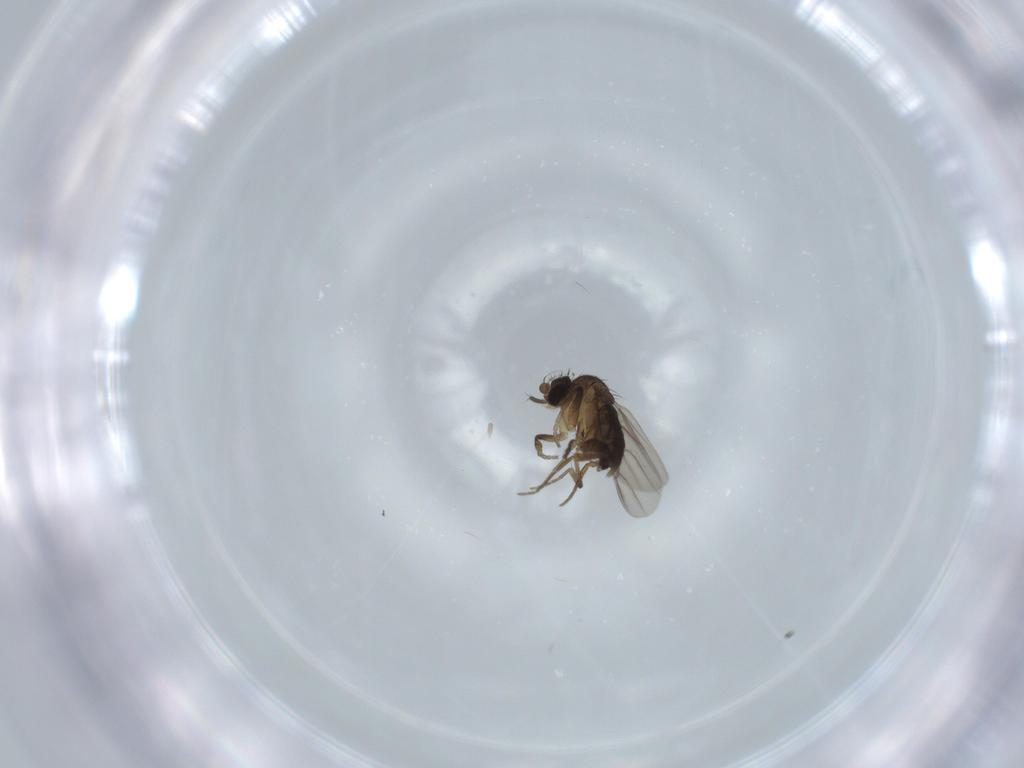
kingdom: Animalia
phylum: Arthropoda
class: Insecta
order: Diptera
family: Phoridae
